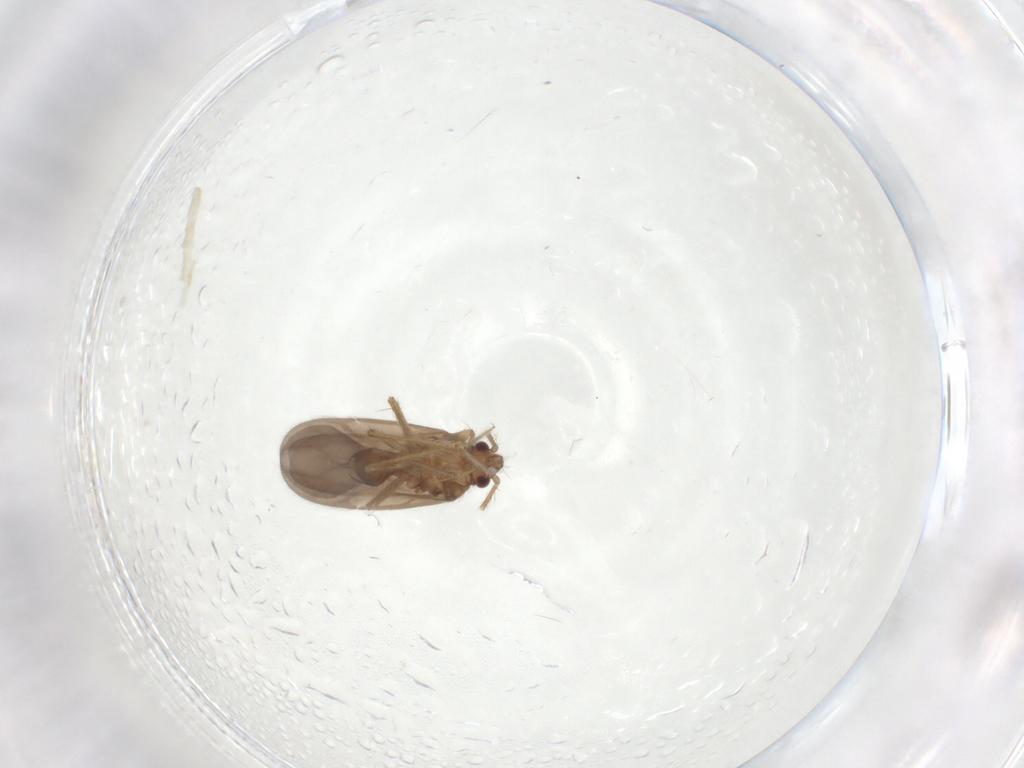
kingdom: Animalia
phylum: Arthropoda
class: Insecta
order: Hemiptera
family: Ceratocombidae
